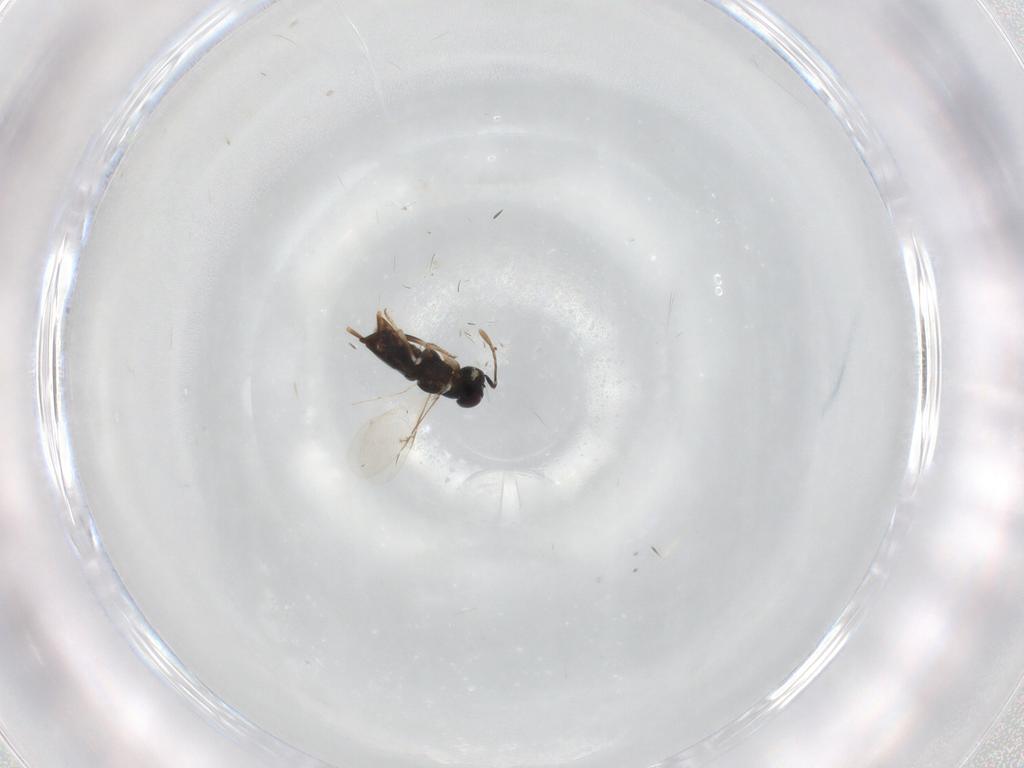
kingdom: Animalia
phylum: Arthropoda
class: Insecta
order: Hymenoptera
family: Encyrtidae
